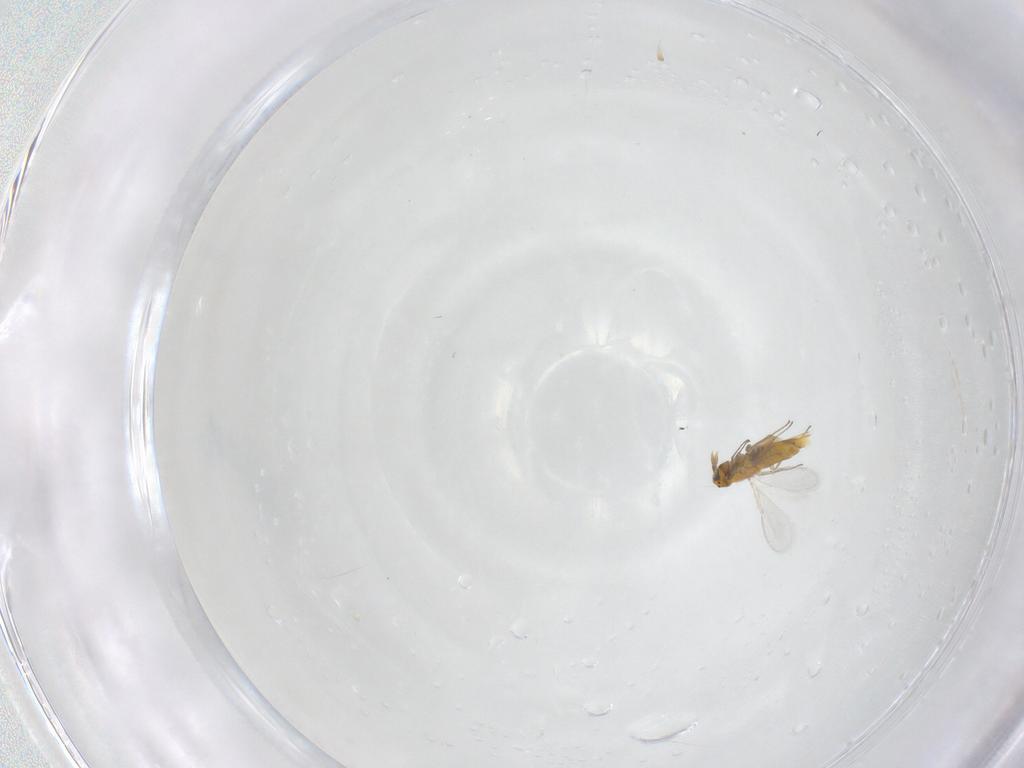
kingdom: Animalia
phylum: Arthropoda
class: Insecta
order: Hymenoptera
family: Aphelinidae
